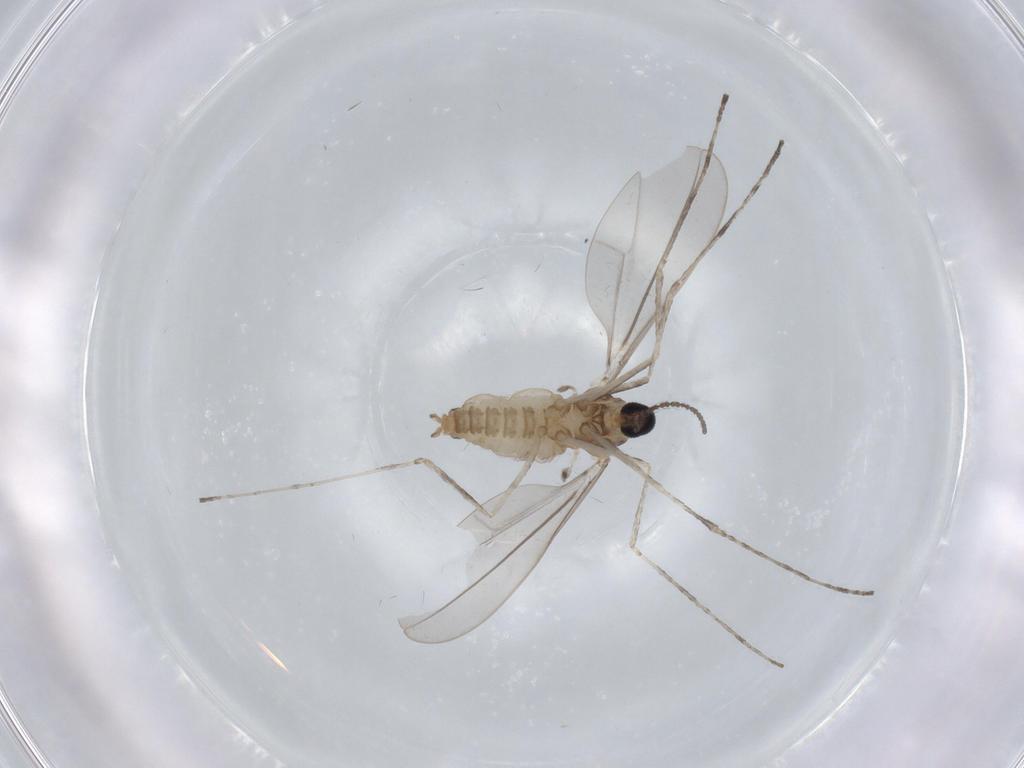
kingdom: Animalia
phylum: Arthropoda
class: Insecta
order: Diptera
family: Cecidomyiidae
